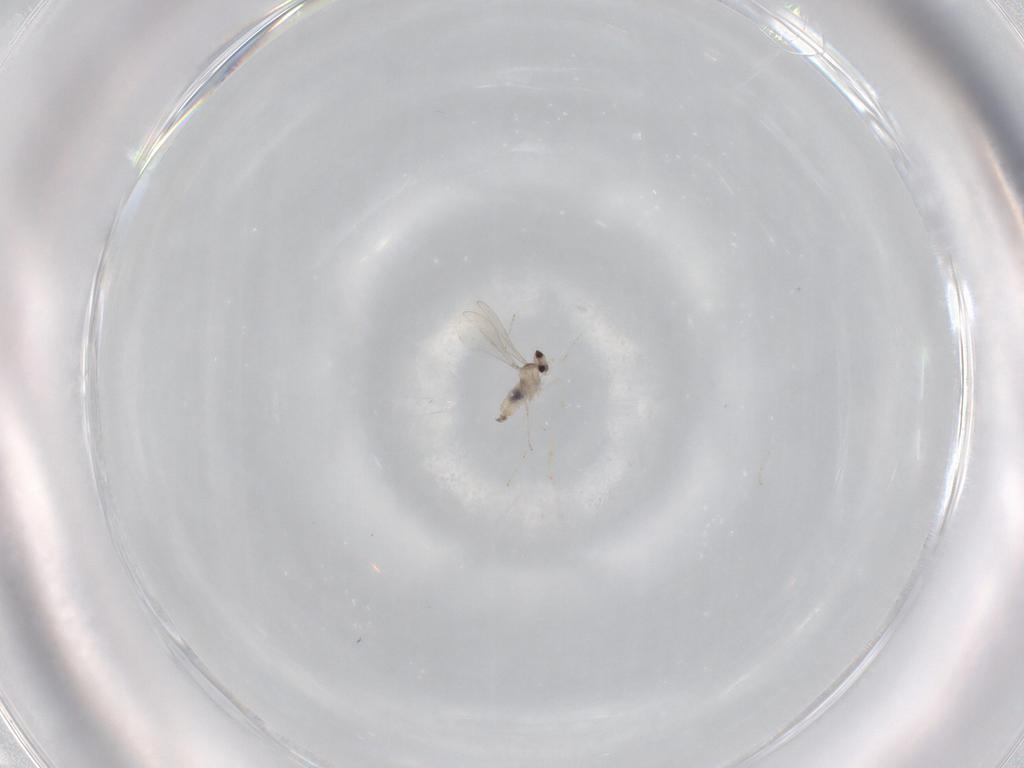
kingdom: Animalia
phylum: Arthropoda
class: Insecta
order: Diptera
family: Cecidomyiidae
